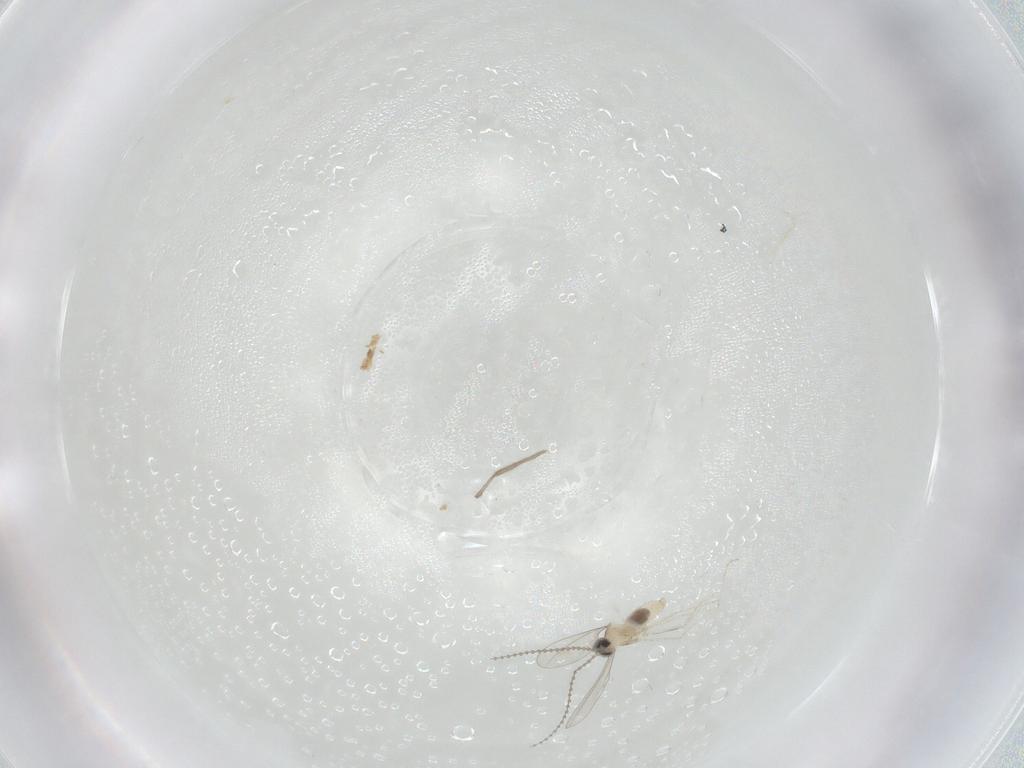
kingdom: Animalia
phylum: Arthropoda
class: Insecta
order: Diptera
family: Cecidomyiidae
